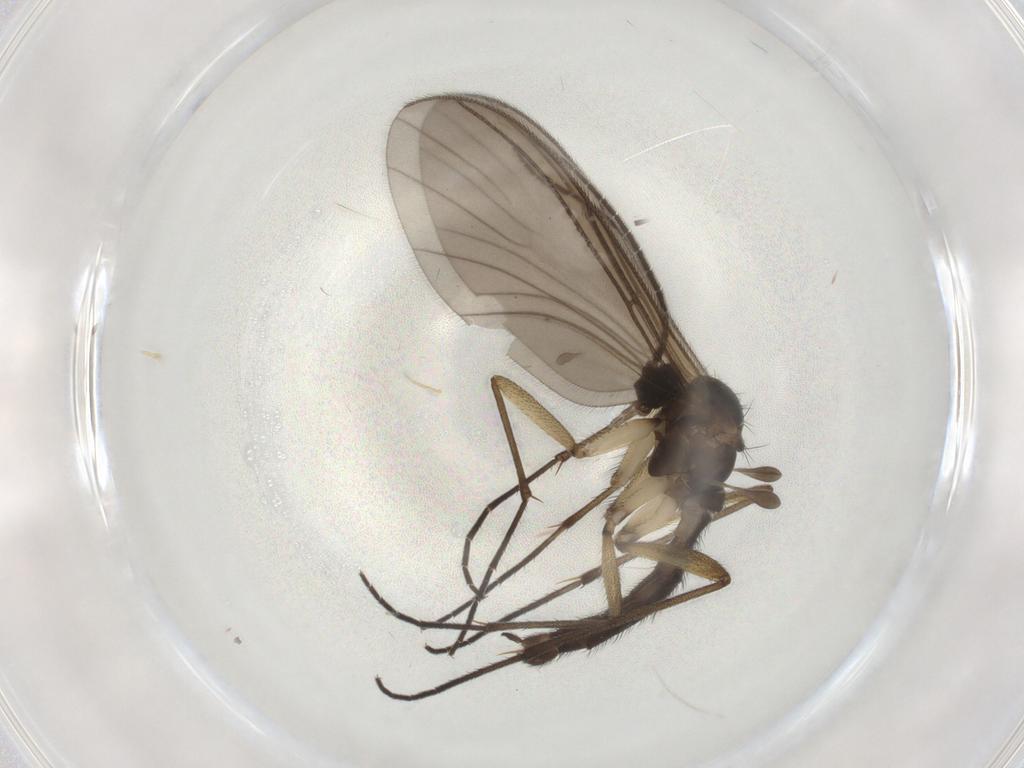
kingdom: Animalia
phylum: Arthropoda
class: Insecta
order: Diptera
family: Sciaridae
